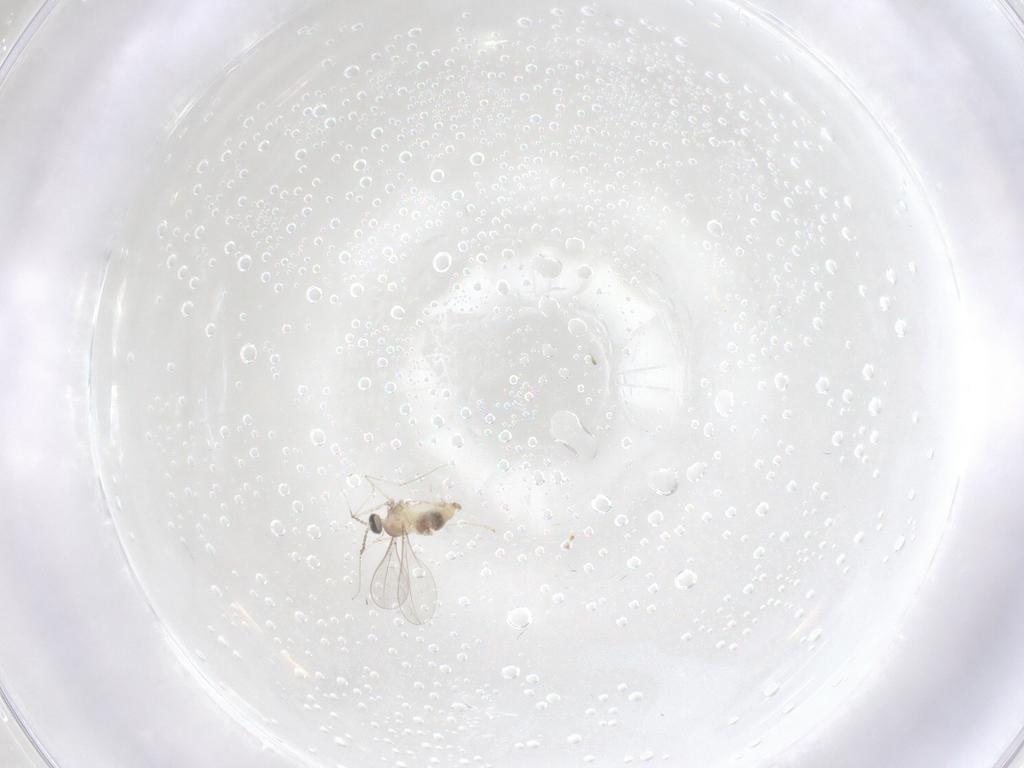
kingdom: Animalia
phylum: Arthropoda
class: Insecta
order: Diptera
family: Cecidomyiidae
